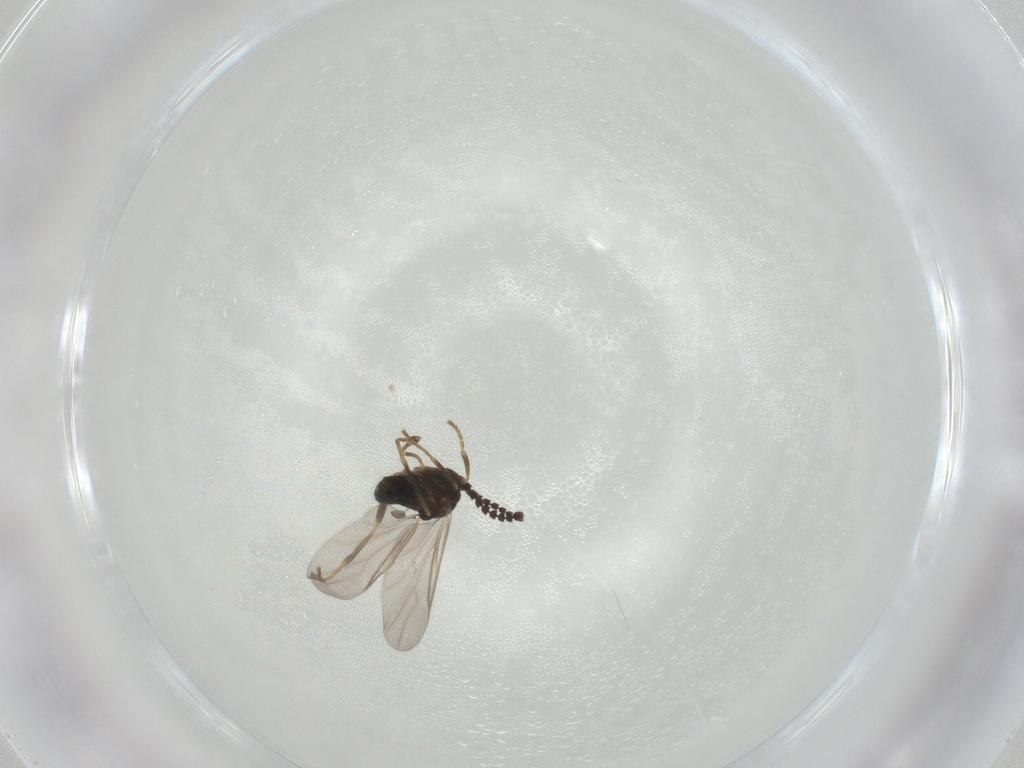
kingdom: Animalia
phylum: Arthropoda
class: Insecta
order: Diptera
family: Scatopsidae
